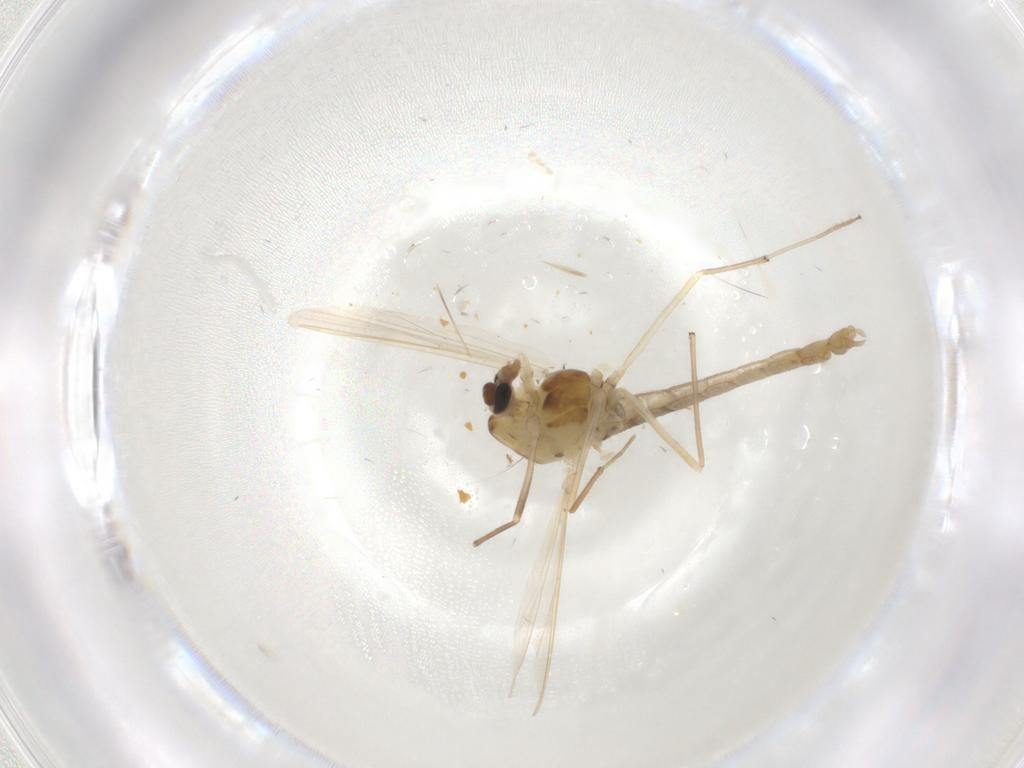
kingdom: Animalia
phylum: Arthropoda
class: Insecta
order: Diptera
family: Chironomidae
